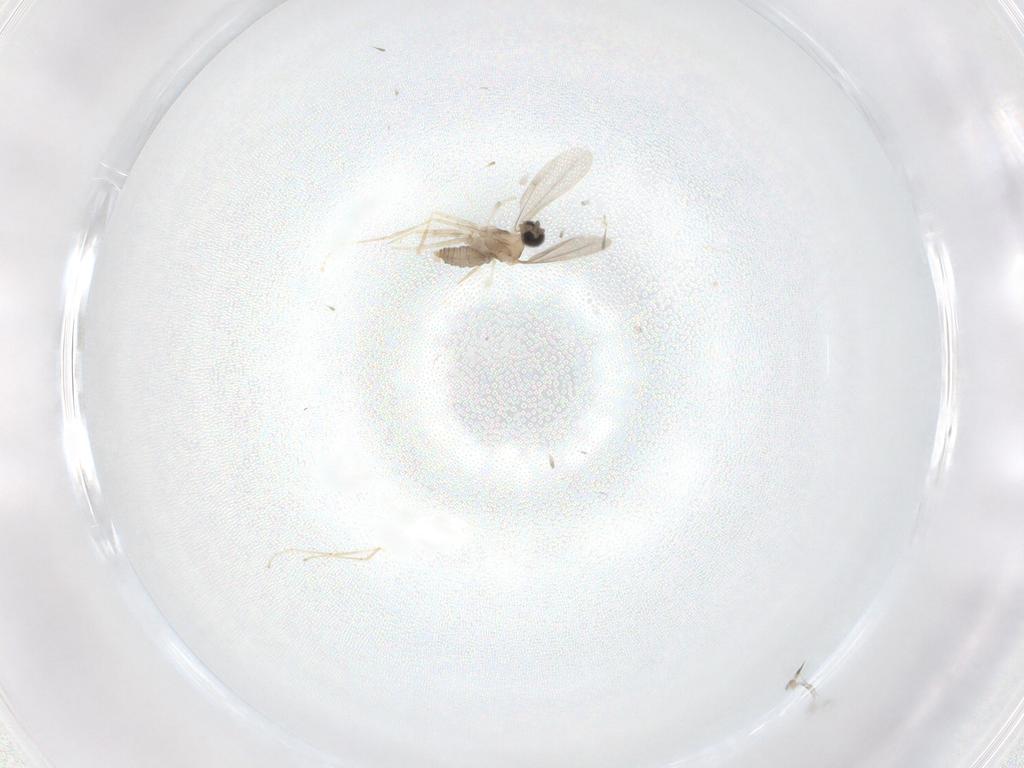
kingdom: Animalia
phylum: Arthropoda
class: Insecta
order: Diptera
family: Cecidomyiidae
